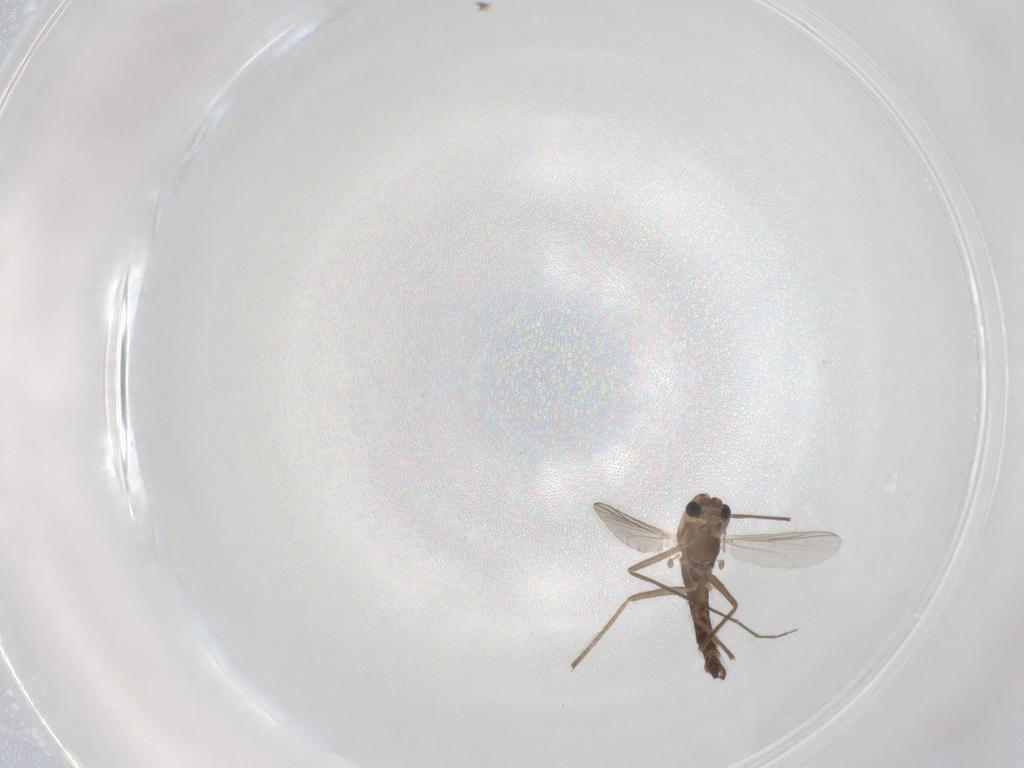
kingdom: Animalia
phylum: Arthropoda
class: Insecta
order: Diptera
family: Chironomidae
